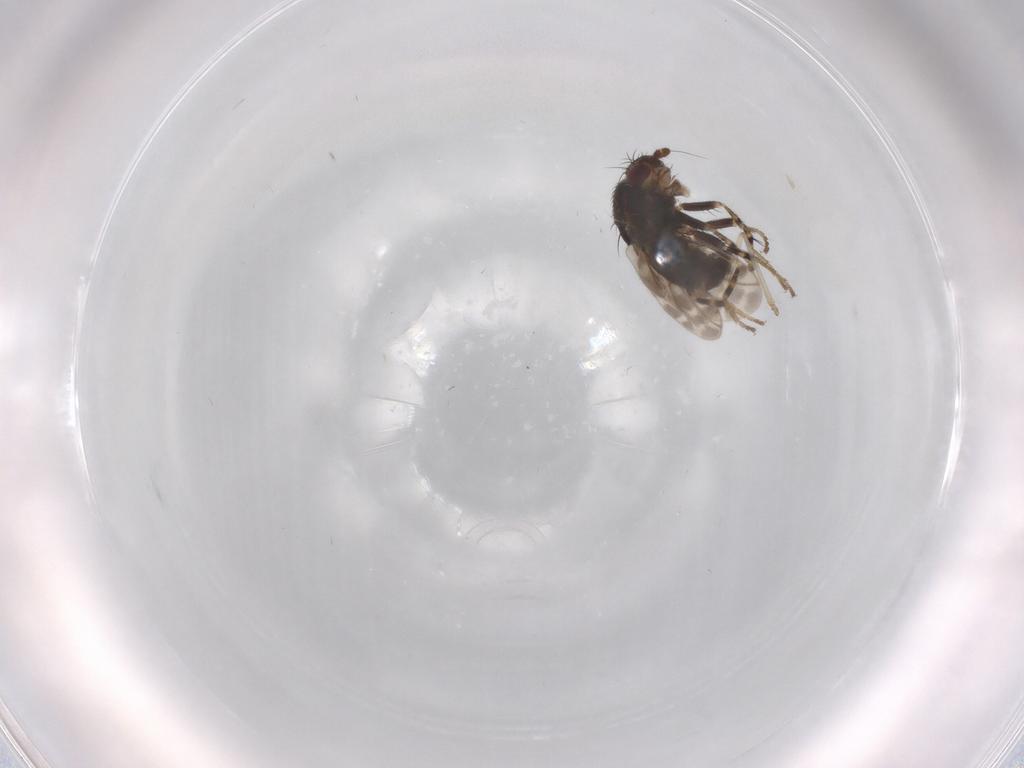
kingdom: Animalia
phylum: Arthropoda
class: Insecta
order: Diptera
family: Sphaeroceridae
